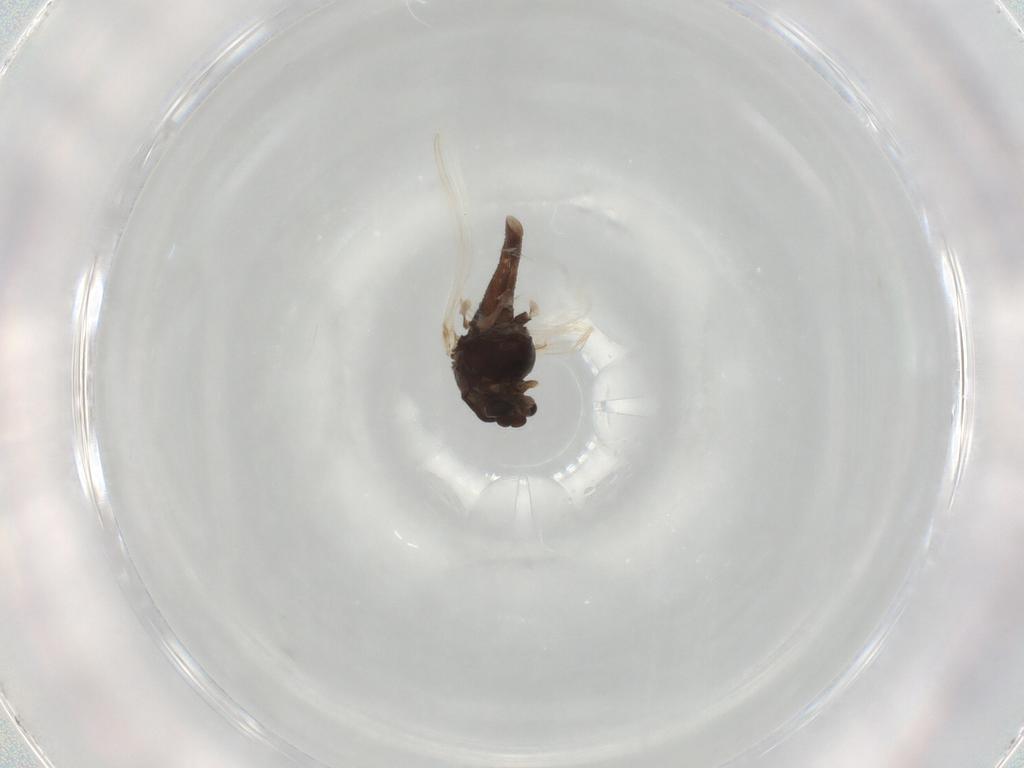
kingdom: Animalia
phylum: Arthropoda
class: Insecta
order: Diptera
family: Chironomidae
